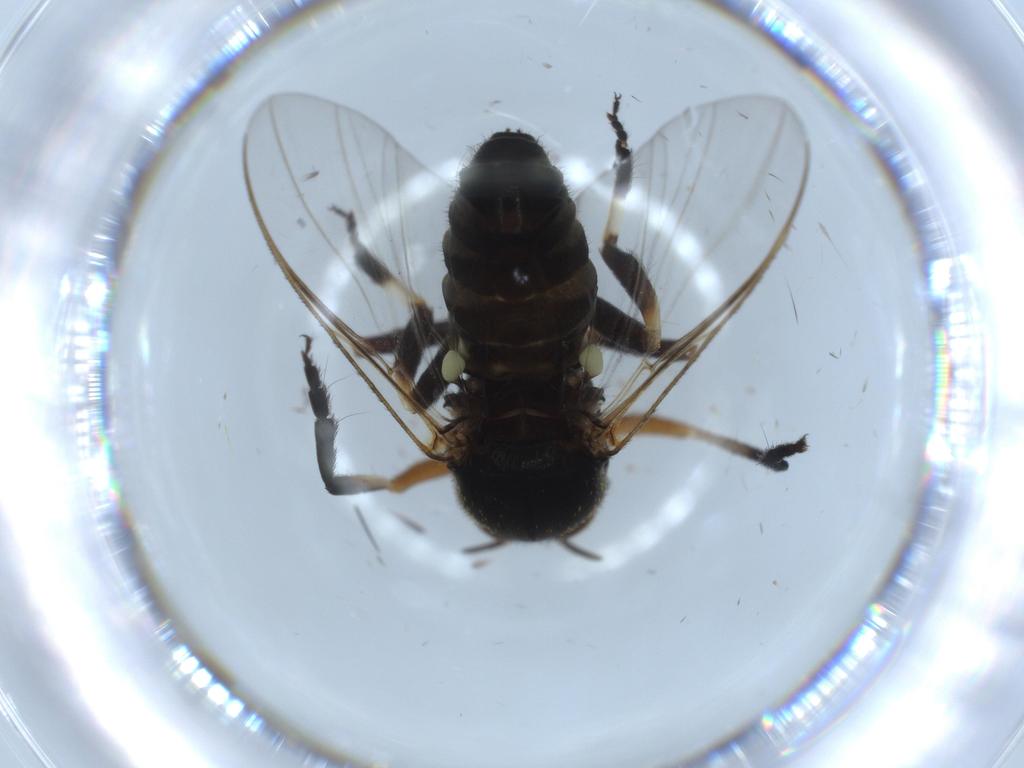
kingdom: Animalia
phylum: Arthropoda
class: Insecta
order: Diptera
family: Cecidomyiidae
